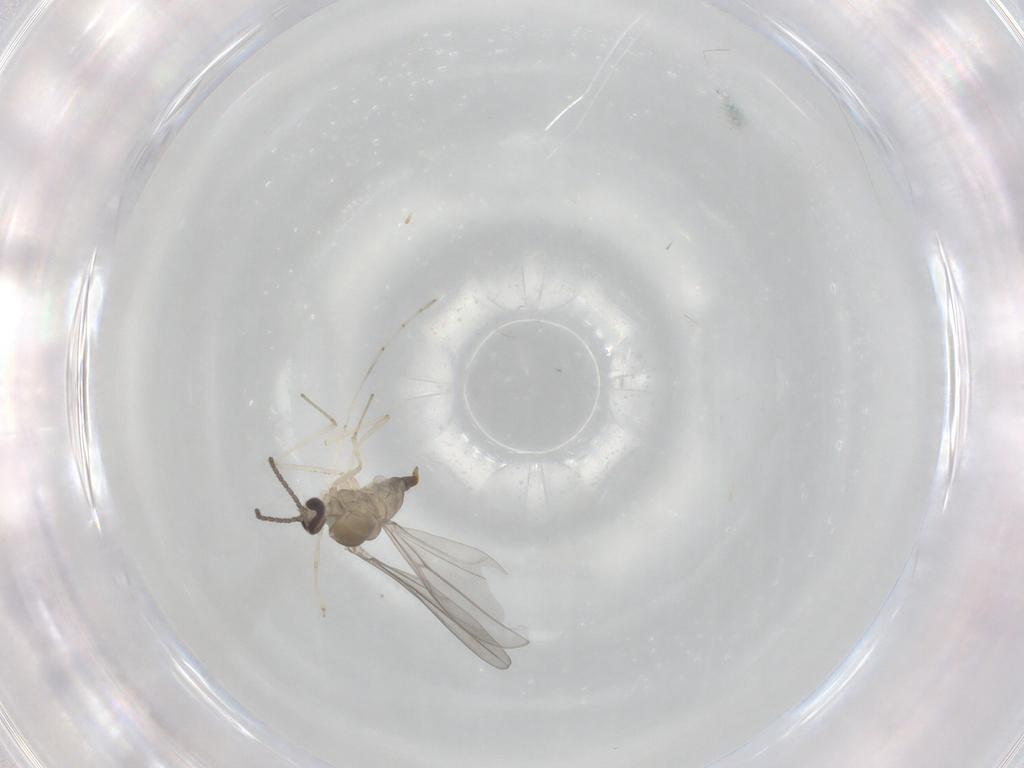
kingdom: Animalia
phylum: Arthropoda
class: Insecta
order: Diptera
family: Cecidomyiidae
